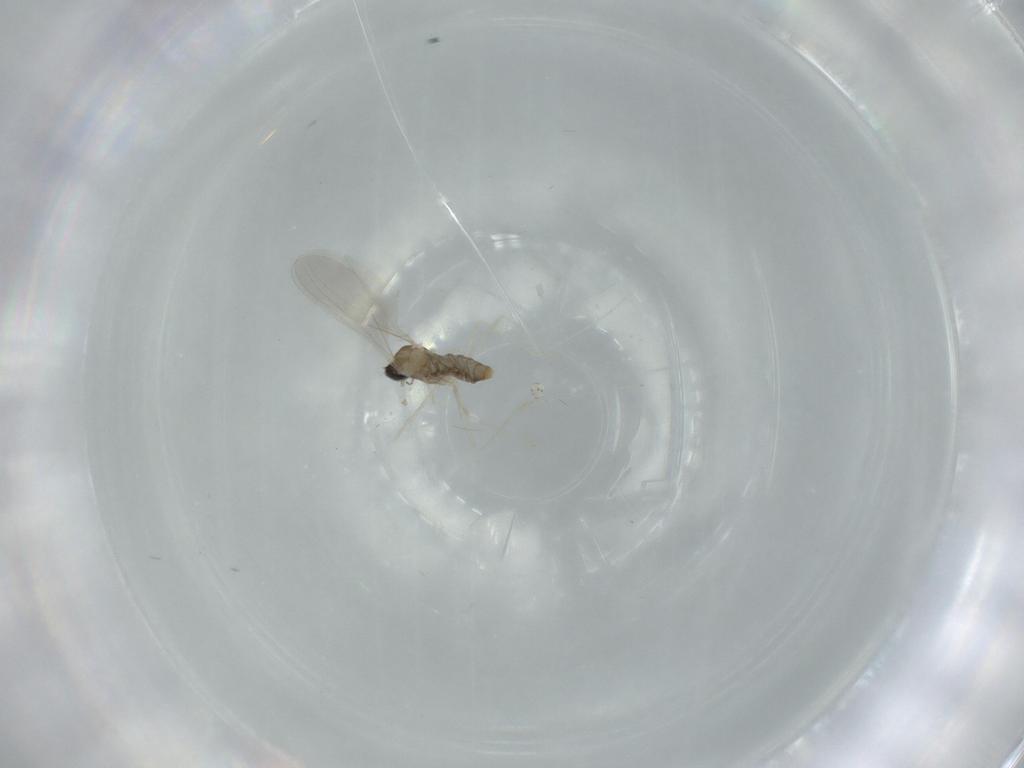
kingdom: Animalia
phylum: Arthropoda
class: Insecta
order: Diptera
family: Cecidomyiidae
